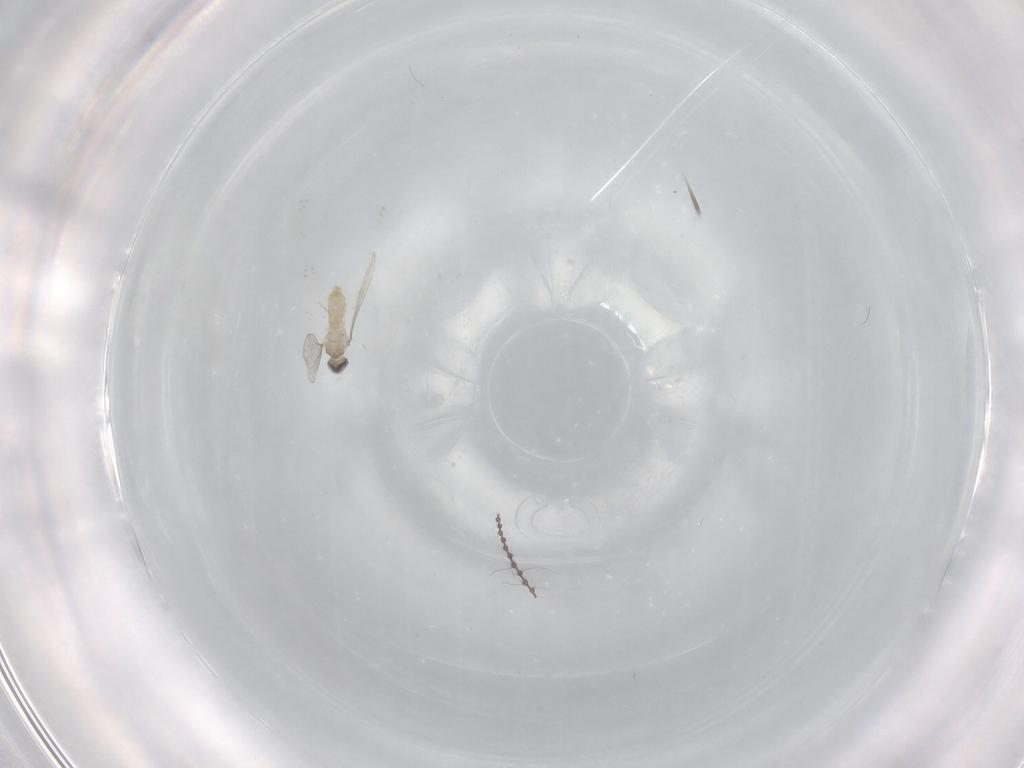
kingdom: Animalia
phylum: Arthropoda
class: Insecta
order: Diptera
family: Cecidomyiidae
